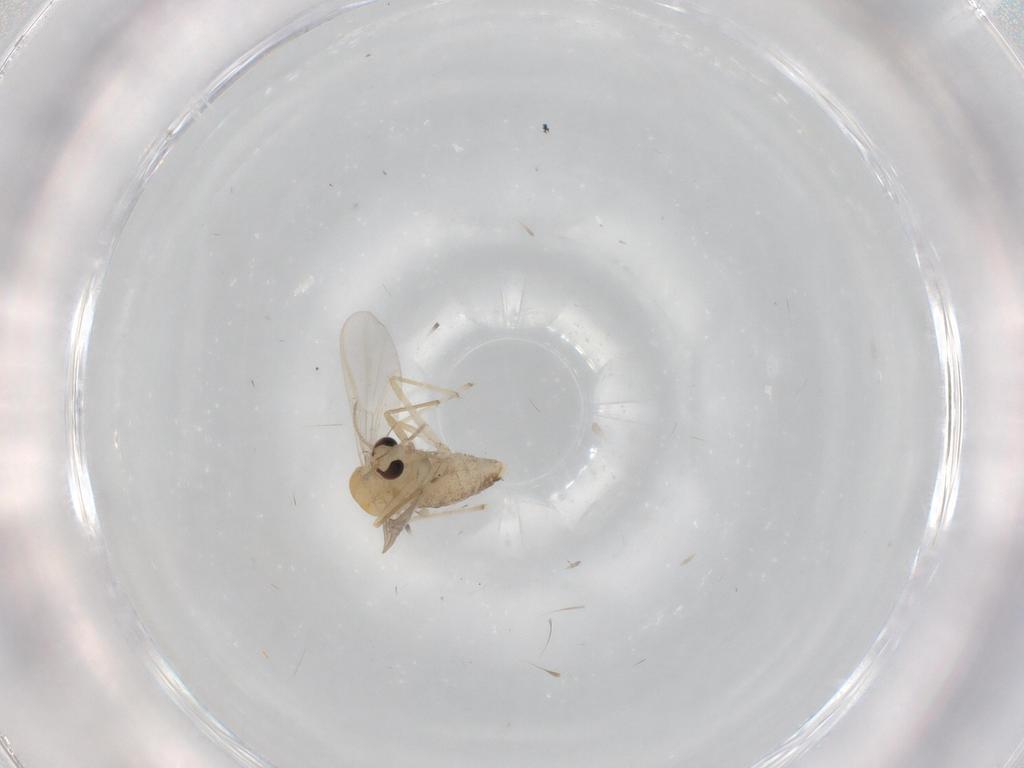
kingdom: Animalia
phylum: Arthropoda
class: Insecta
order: Diptera
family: Chironomidae
